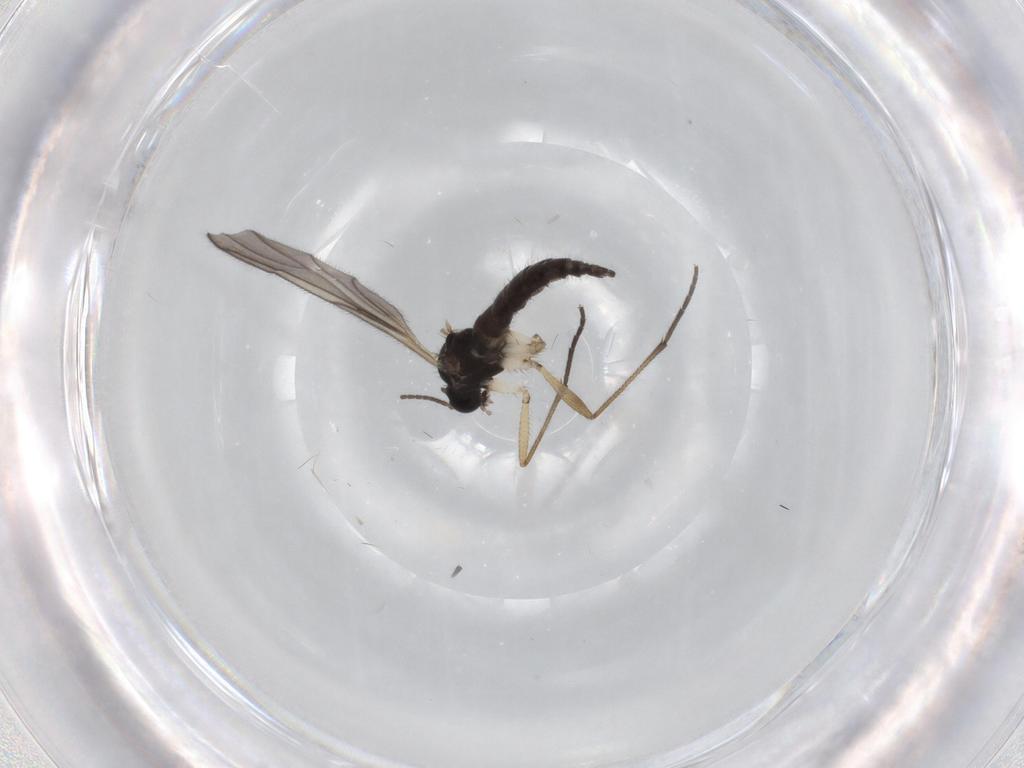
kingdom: Animalia
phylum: Arthropoda
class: Insecta
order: Diptera
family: Sciaridae
